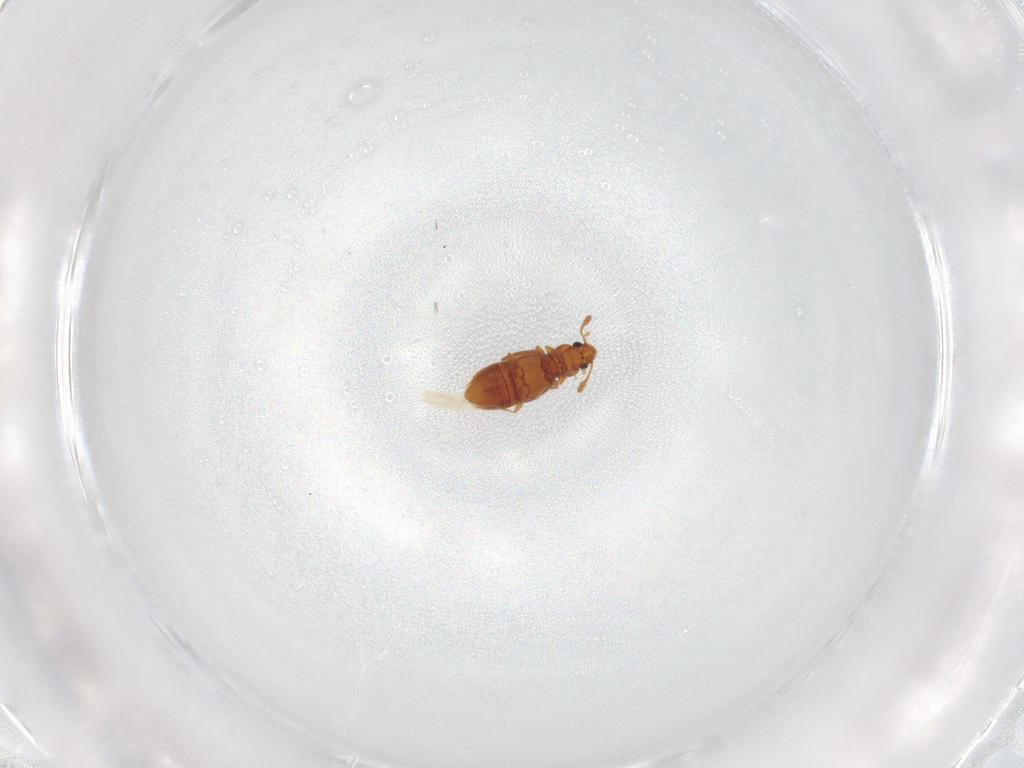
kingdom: Animalia
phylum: Arthropoda
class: Insecta
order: Coleoptera
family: Staphylinidae
